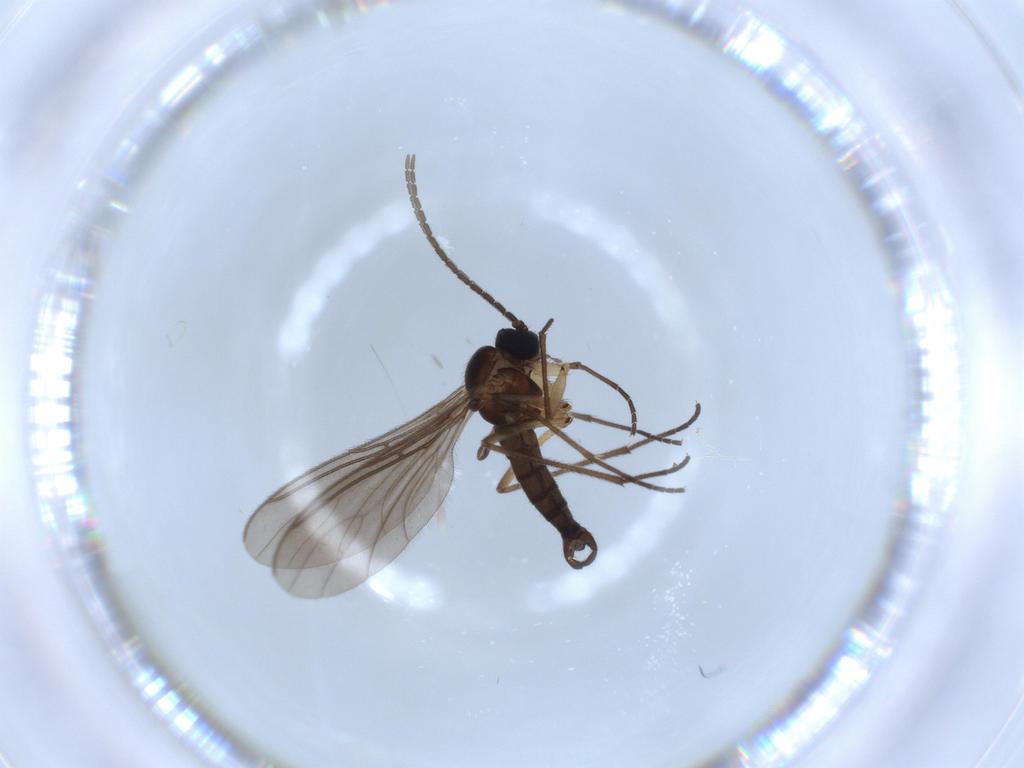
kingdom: Animalia
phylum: Arthropoda
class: Insecta
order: Diptera
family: Sciaridae
